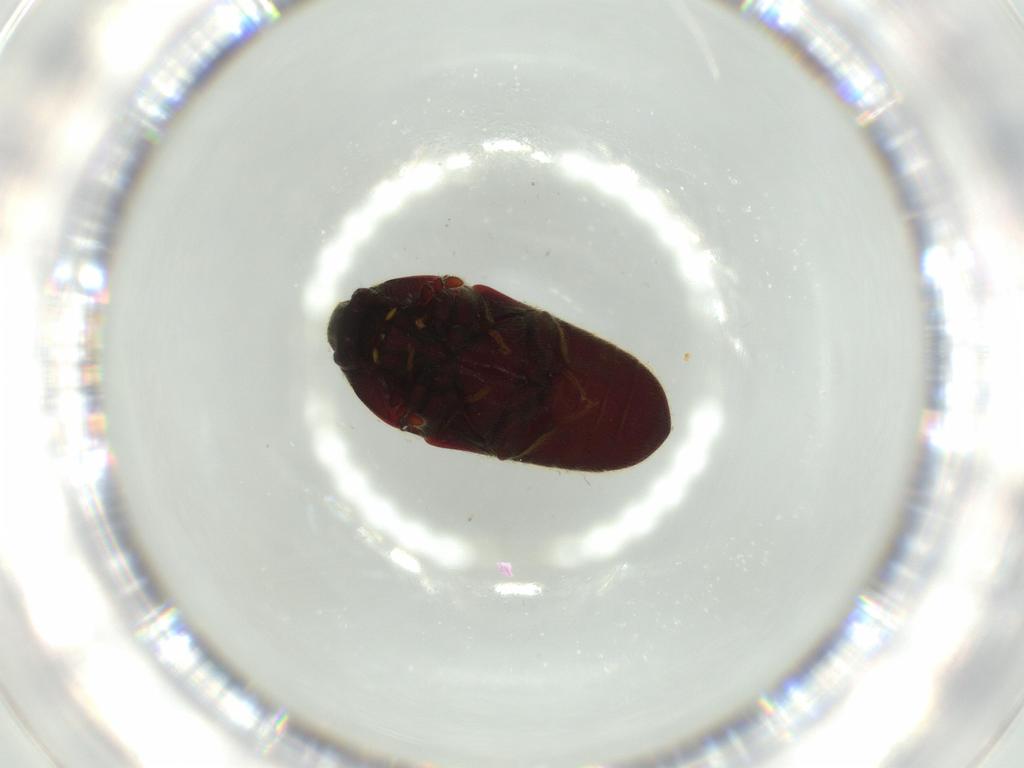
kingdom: Animalia
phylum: Arthropoda
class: Insecta
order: Coleoptera
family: Throscidae
